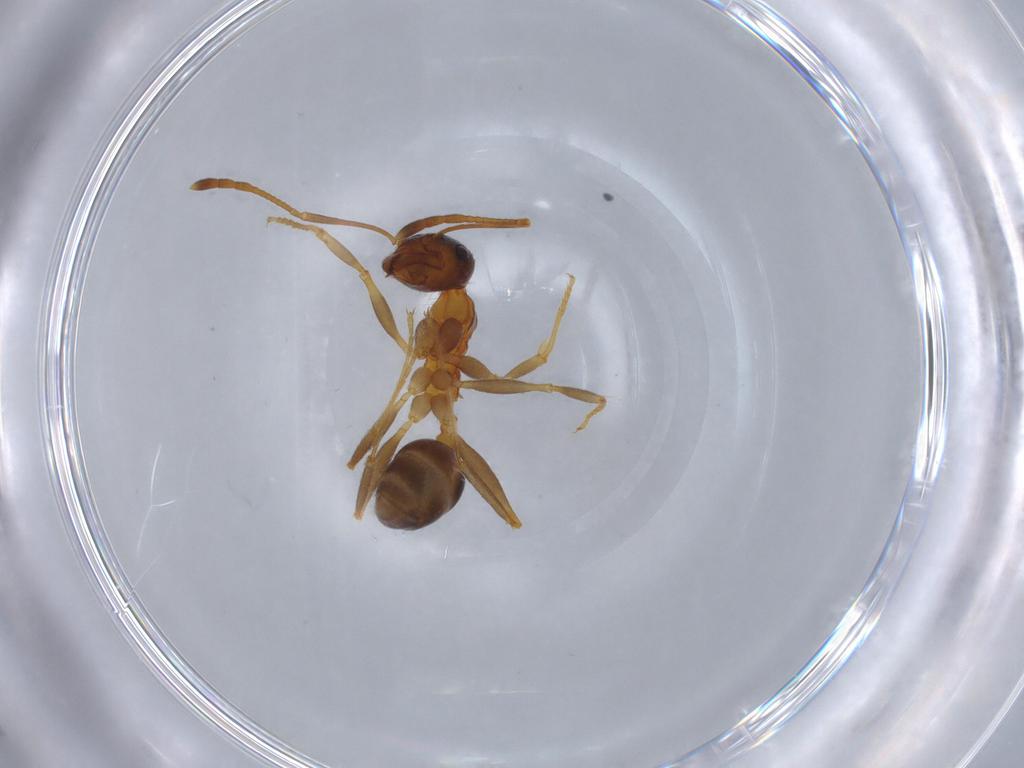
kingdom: Animalia
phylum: Arthropoda
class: Insecta
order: Hymenoptera
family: Formicidae
